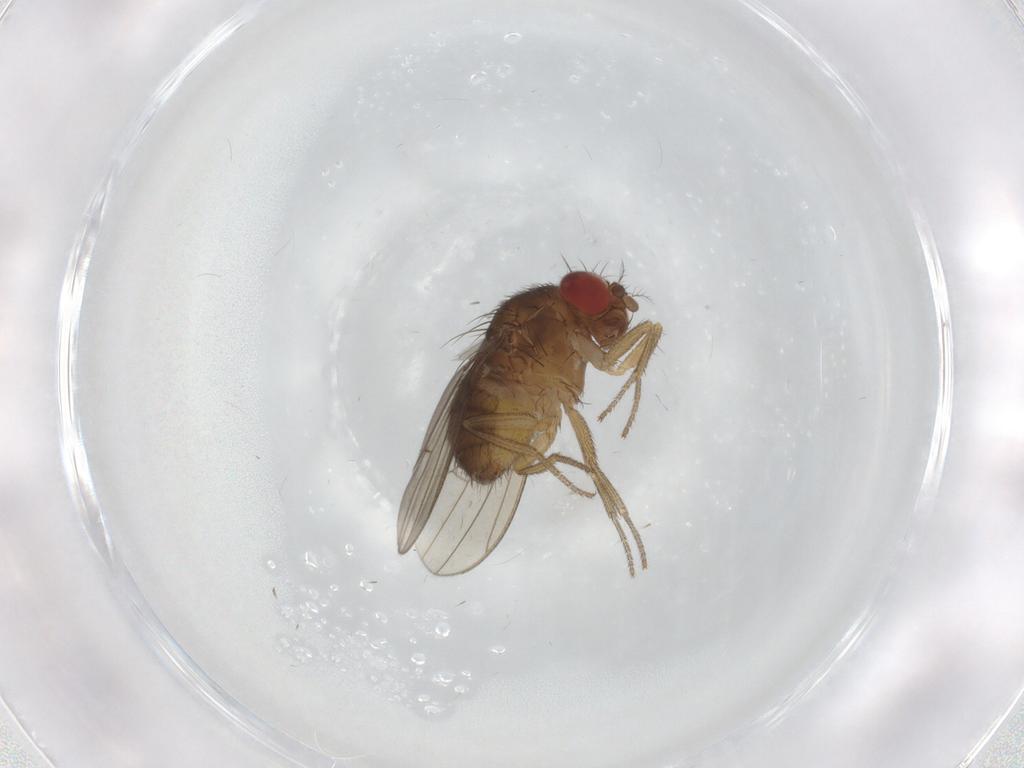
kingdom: Animalia
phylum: Arthropoda
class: Insecta
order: Diptera
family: Drosophilidae
